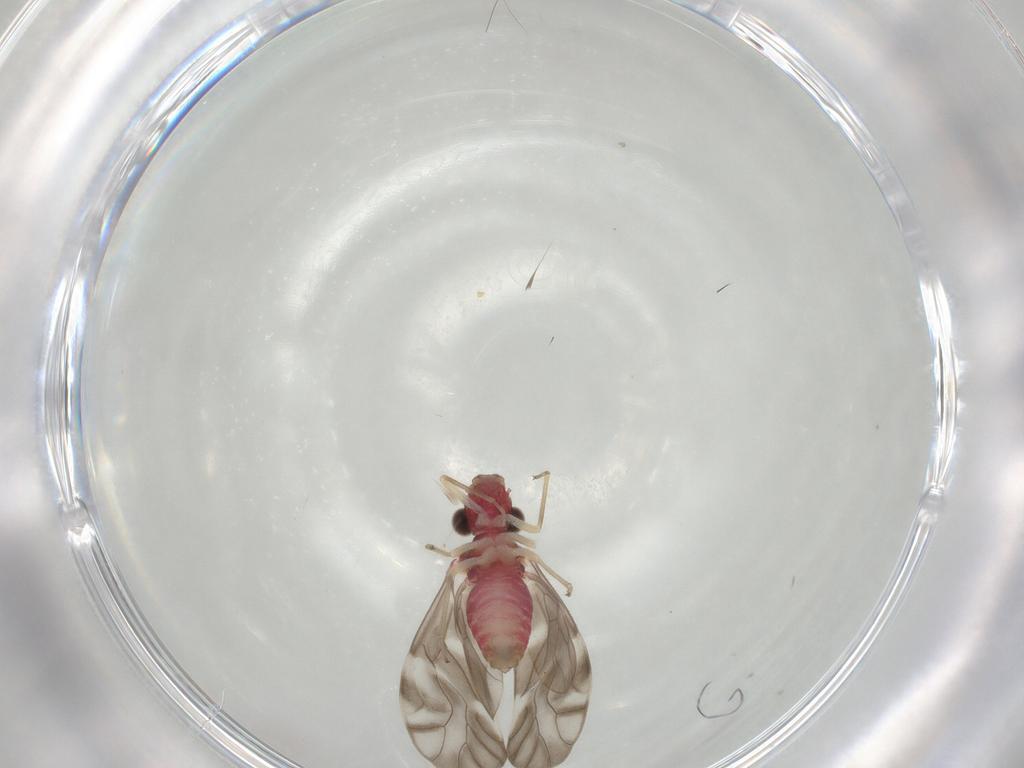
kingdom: Animalia
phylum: Arthropoda
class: Insecta
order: Psocodea
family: Caeciliusidae
